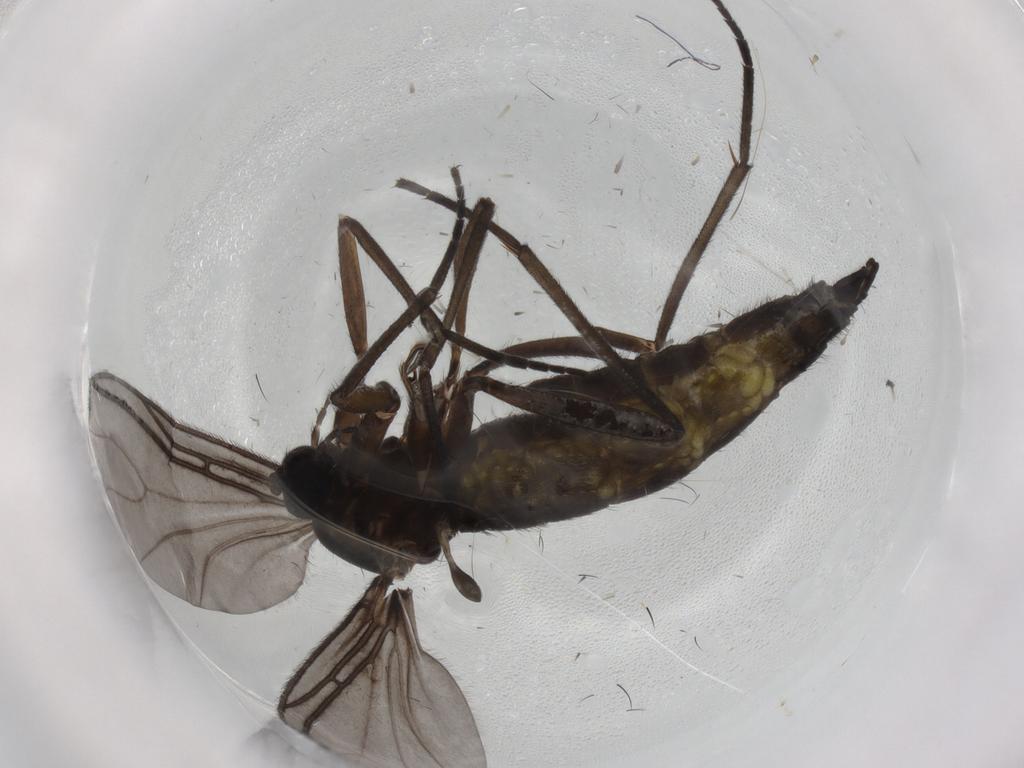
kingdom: Animalia
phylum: Arthropoda
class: Insecta
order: Diptera
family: Sciaridae
